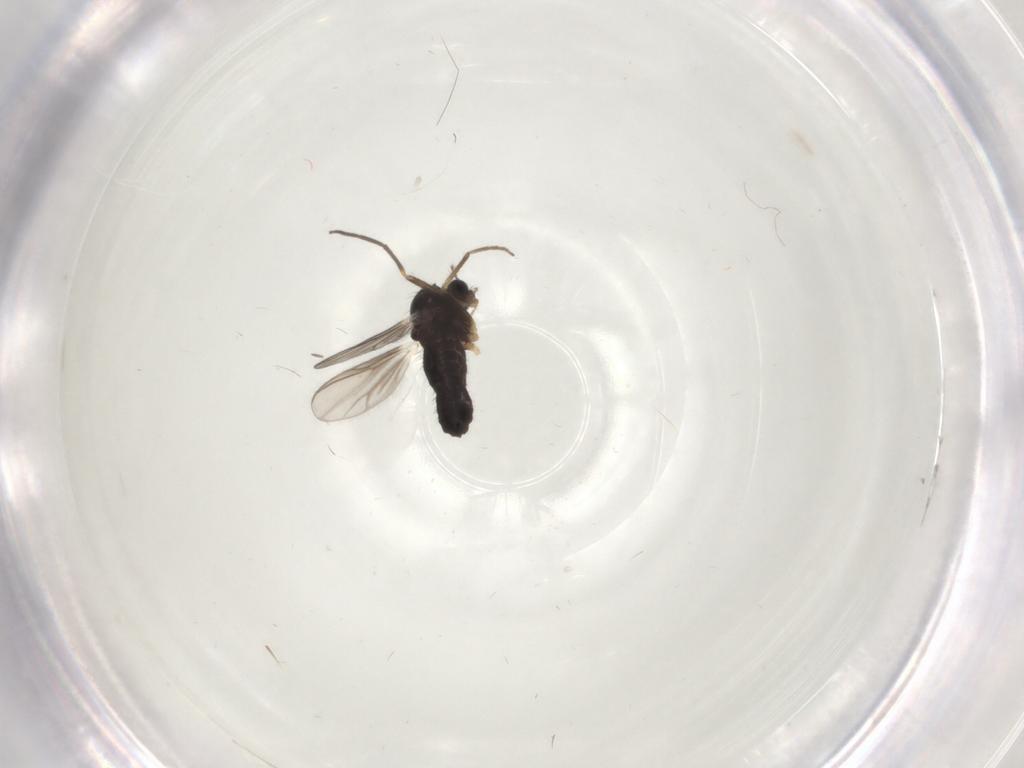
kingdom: Animalia
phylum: Arthropoda
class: Insecta
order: Diptera
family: Chironomidae
